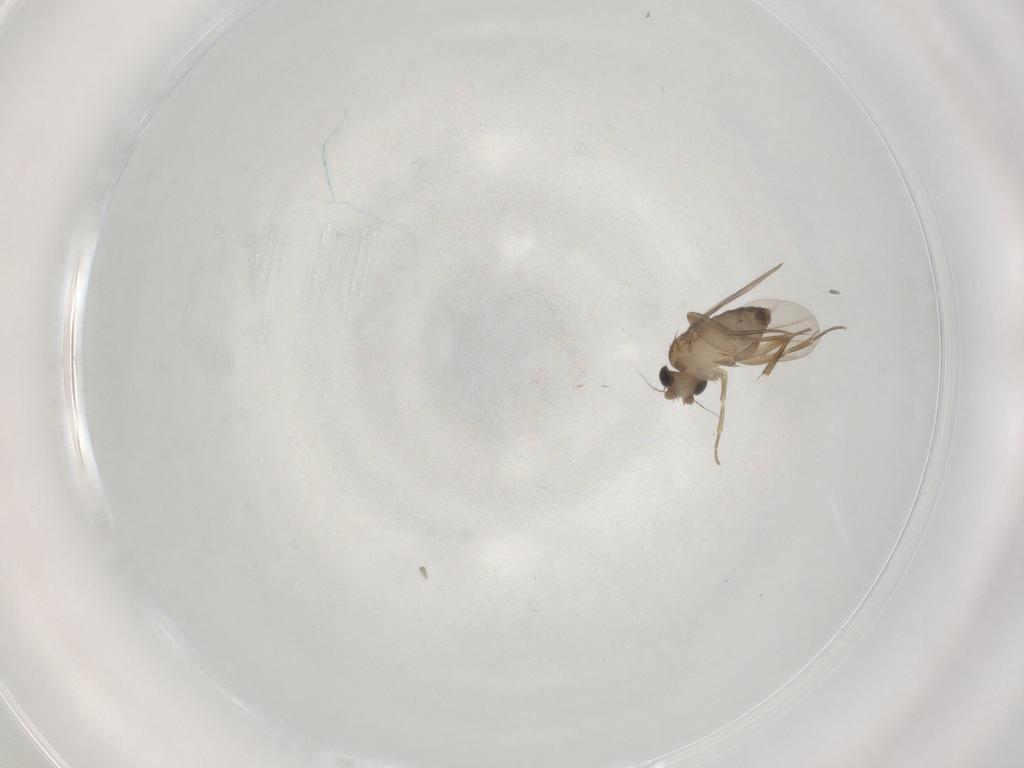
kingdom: Animalia
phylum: Arthropoda
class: Insecta
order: Diptera
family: Phoridae
